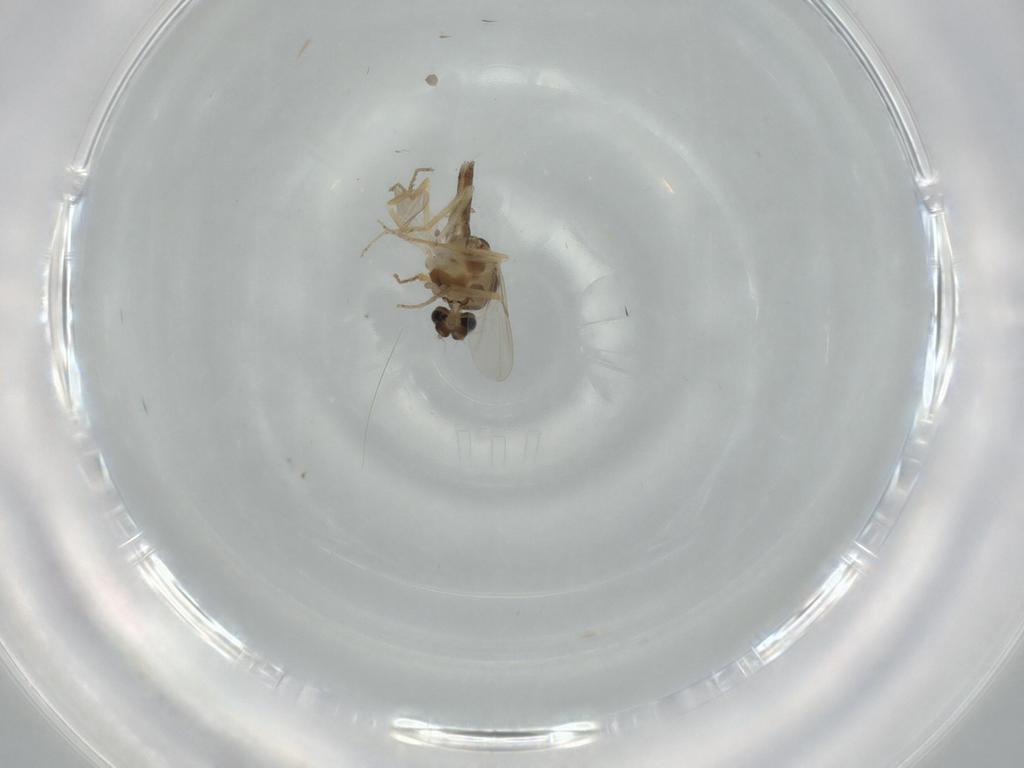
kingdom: Animalia
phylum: Arthropoda
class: Insecta
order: Diptera
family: Ceratopogonidae
